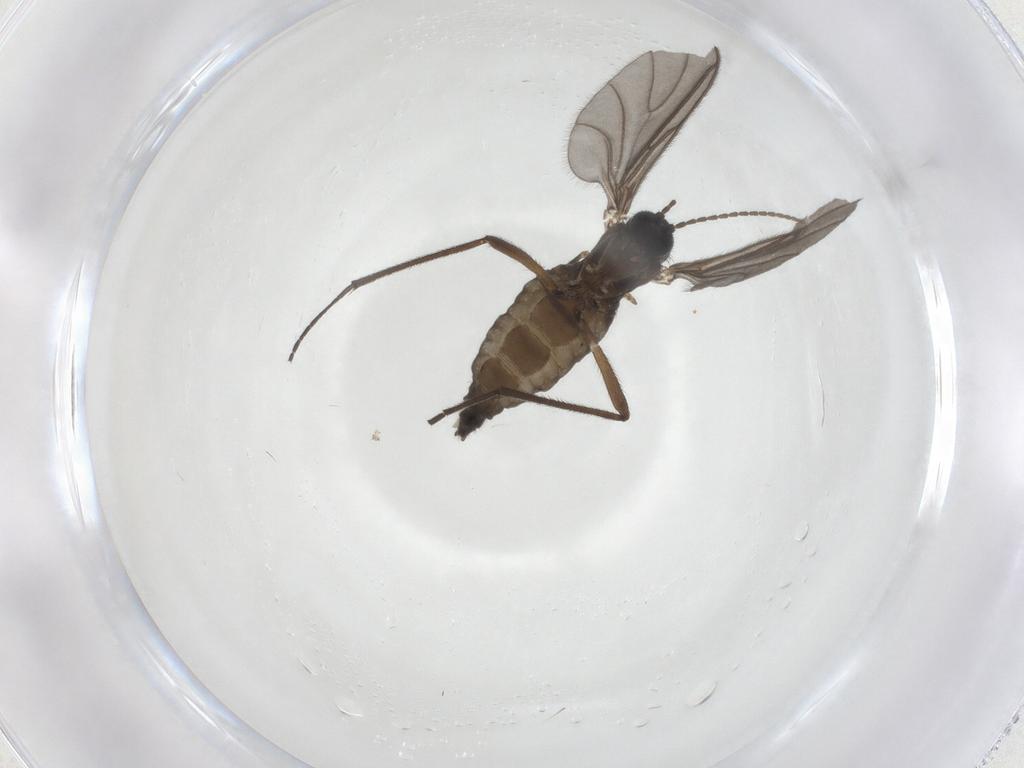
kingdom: Animalia
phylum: Arthropoda
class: Insecta
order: Diptera
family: Sciaridae
